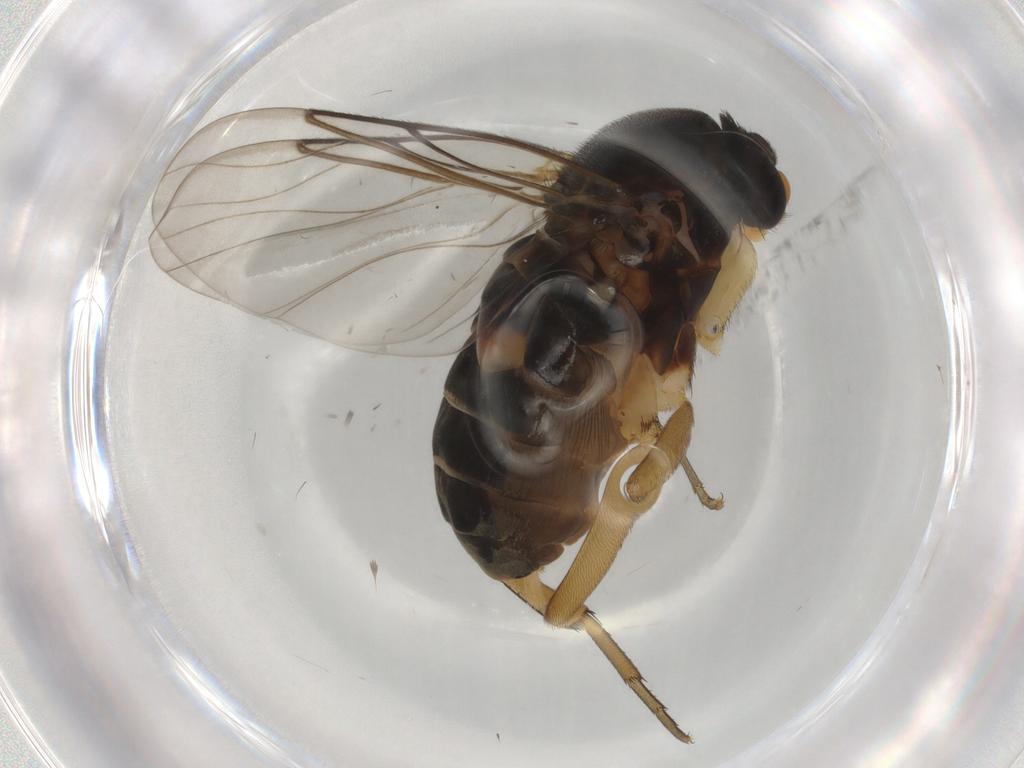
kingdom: Animalia
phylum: Arthropoda
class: Insecta
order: Diptera
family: Phoridae
